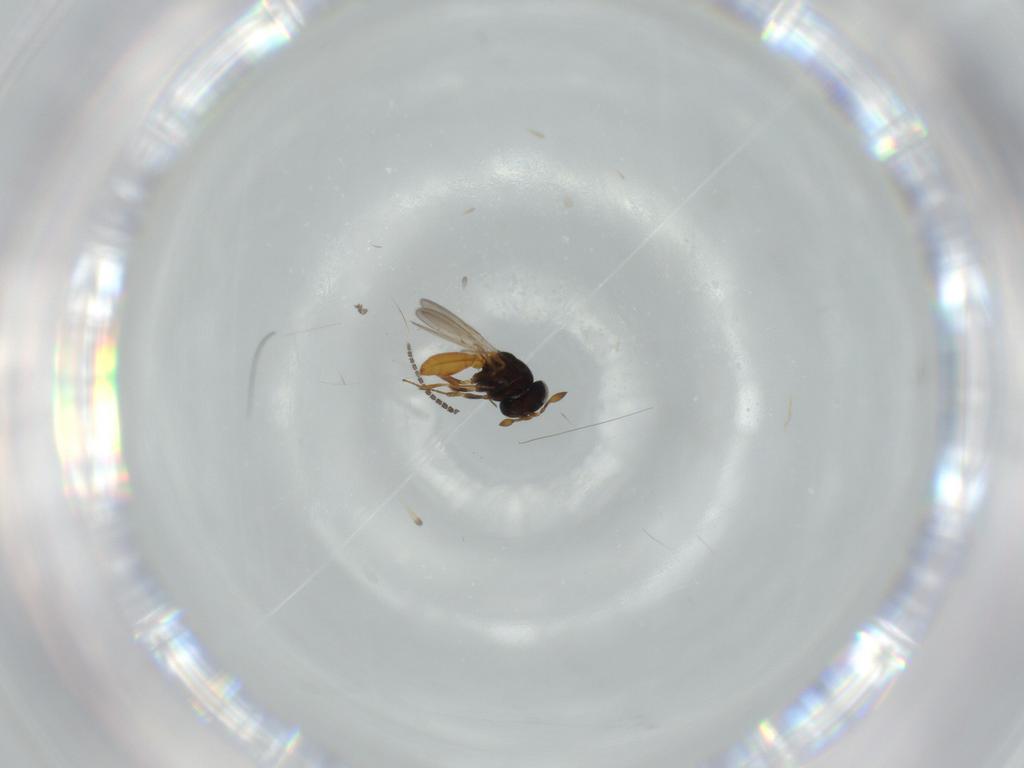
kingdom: Animalia
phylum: Arthropoda
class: Insecta
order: Hymenoptera
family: Scelionidae
